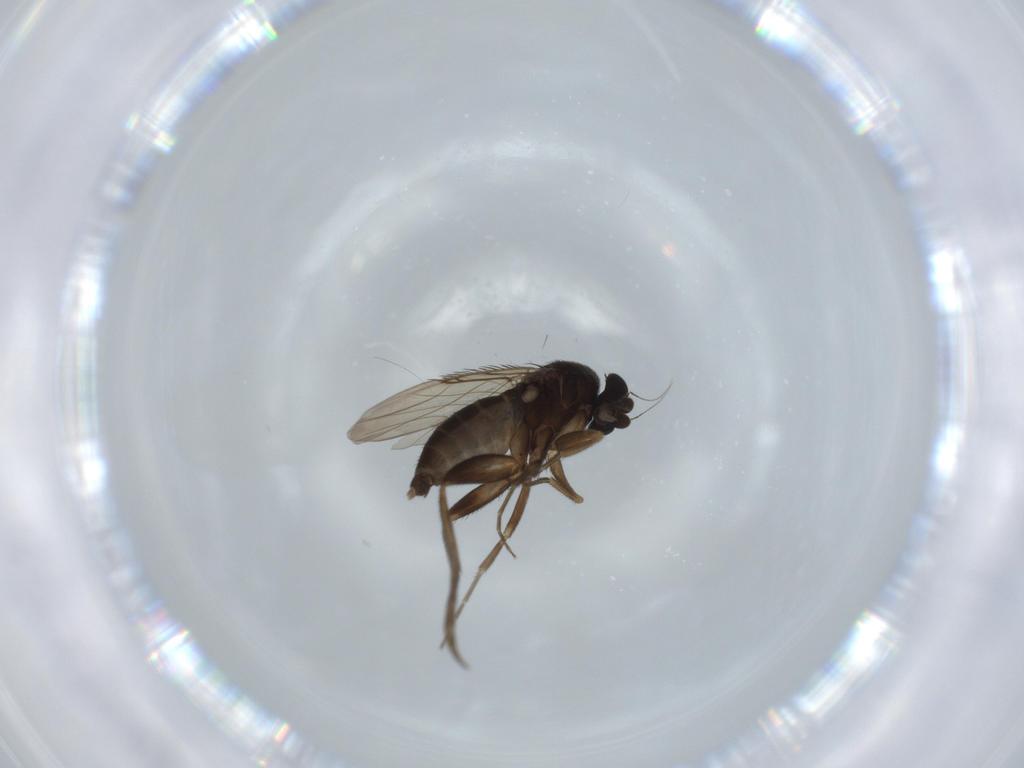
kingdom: Animalia
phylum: Arthropoda
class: Insecta
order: Diptera
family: Phoridae
